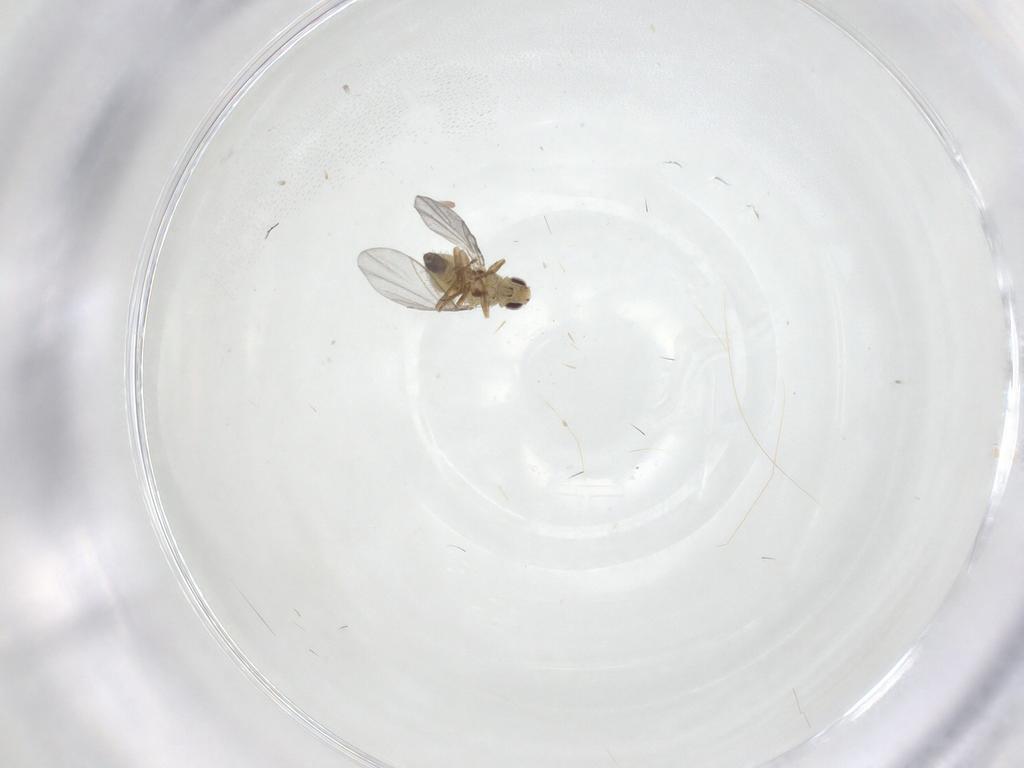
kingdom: Animalia
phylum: Arthropoda
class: Insecta
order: Diptera
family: Agromyzidae
